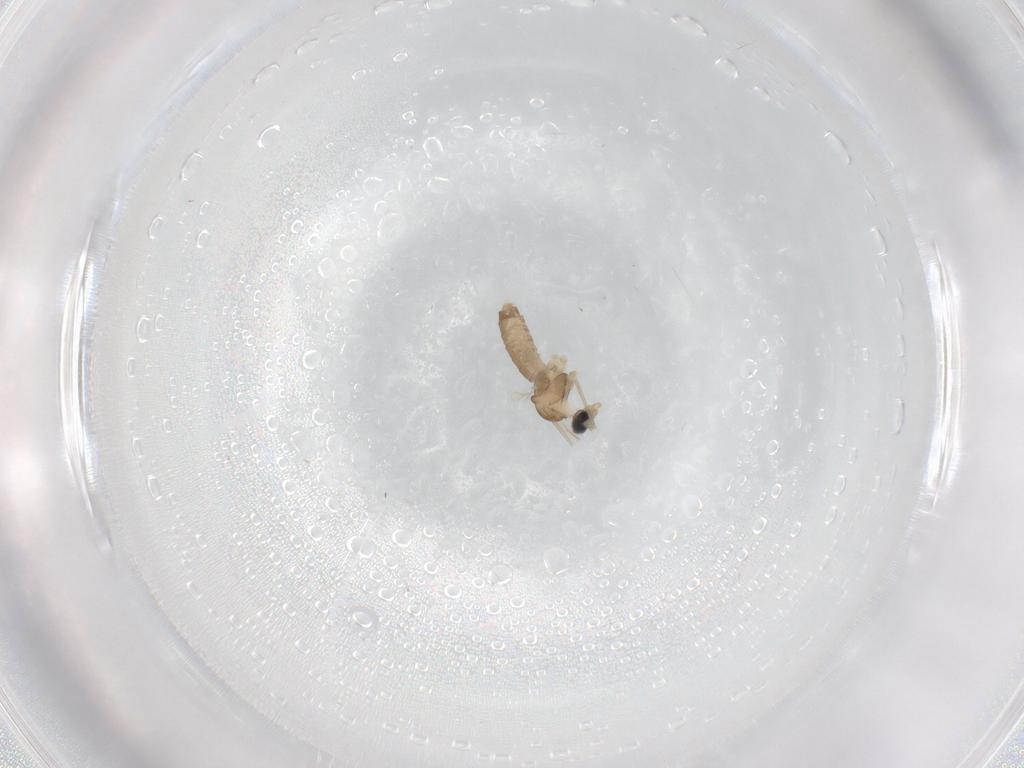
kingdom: Animalia
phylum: Arthropoda
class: Insecta
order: Diptera
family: Cecidomyiidae
